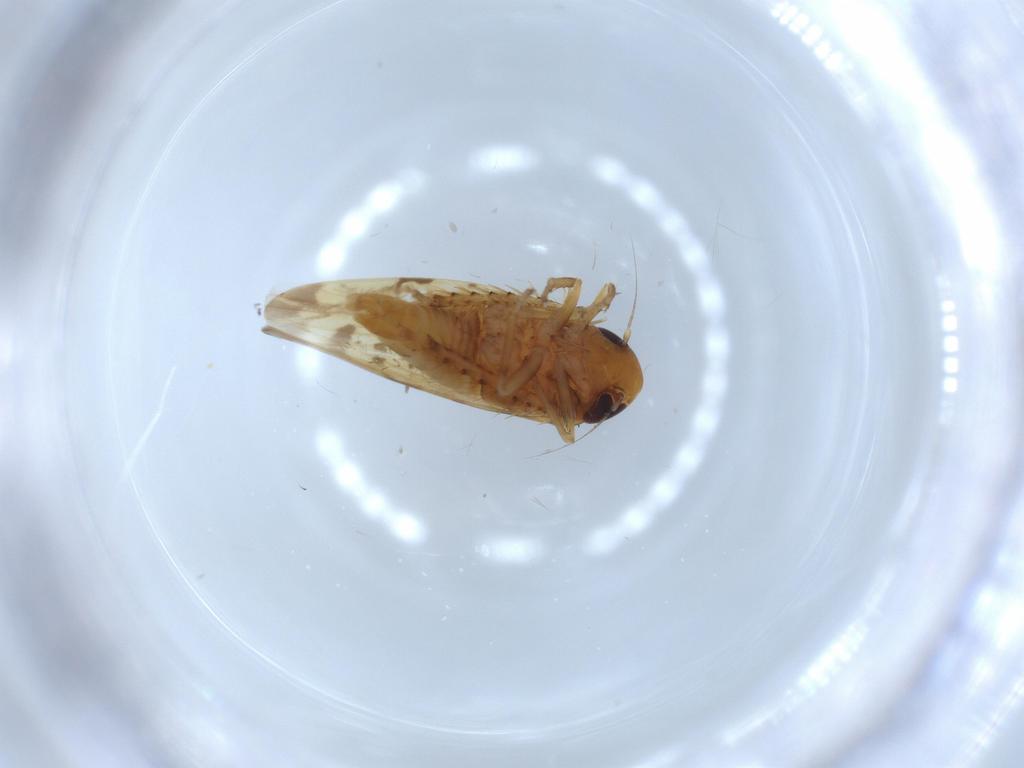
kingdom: Animalia
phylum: Arthropoda
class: Insecta
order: Hemiptera
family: Cicadellidae
